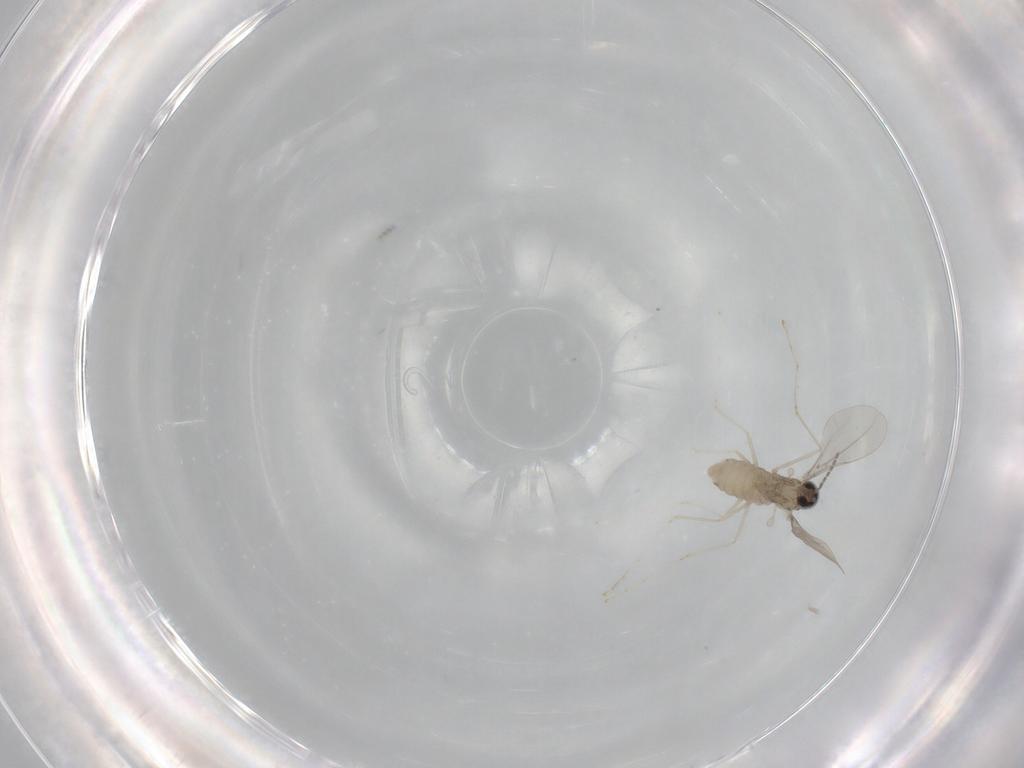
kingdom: Animalia
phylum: Arthropoda
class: Insecta
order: Diptera
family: Cecidomyiidae
